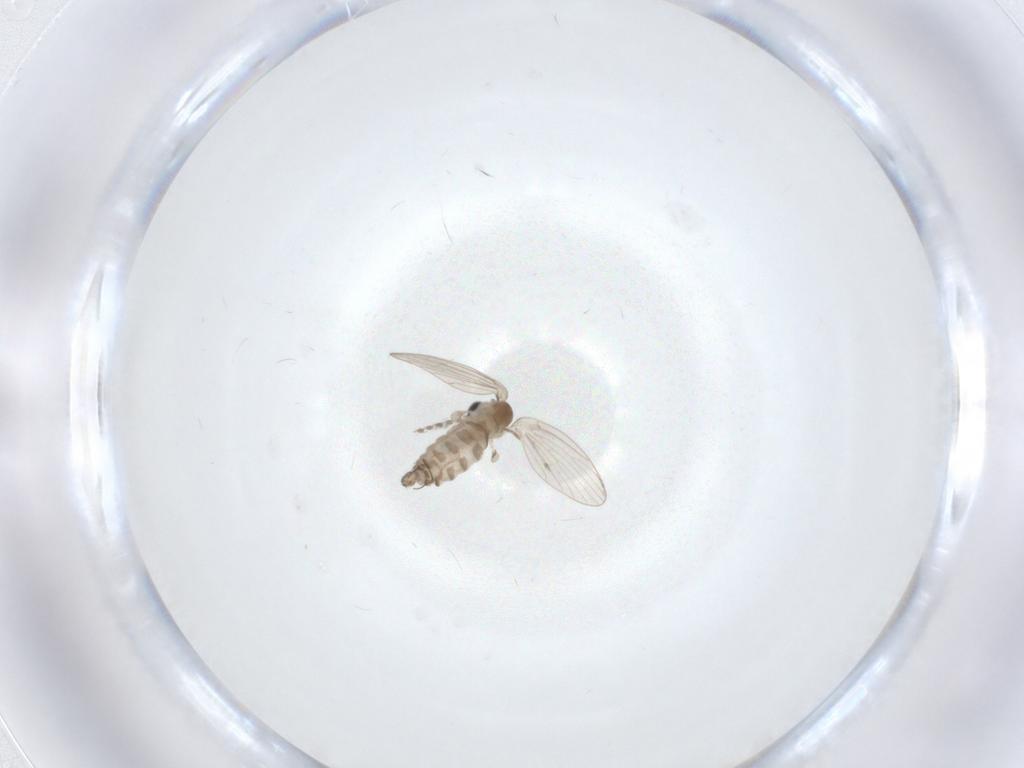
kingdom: Animalia
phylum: Arthropoda
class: Insecta
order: Diptera
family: Psychodidae
